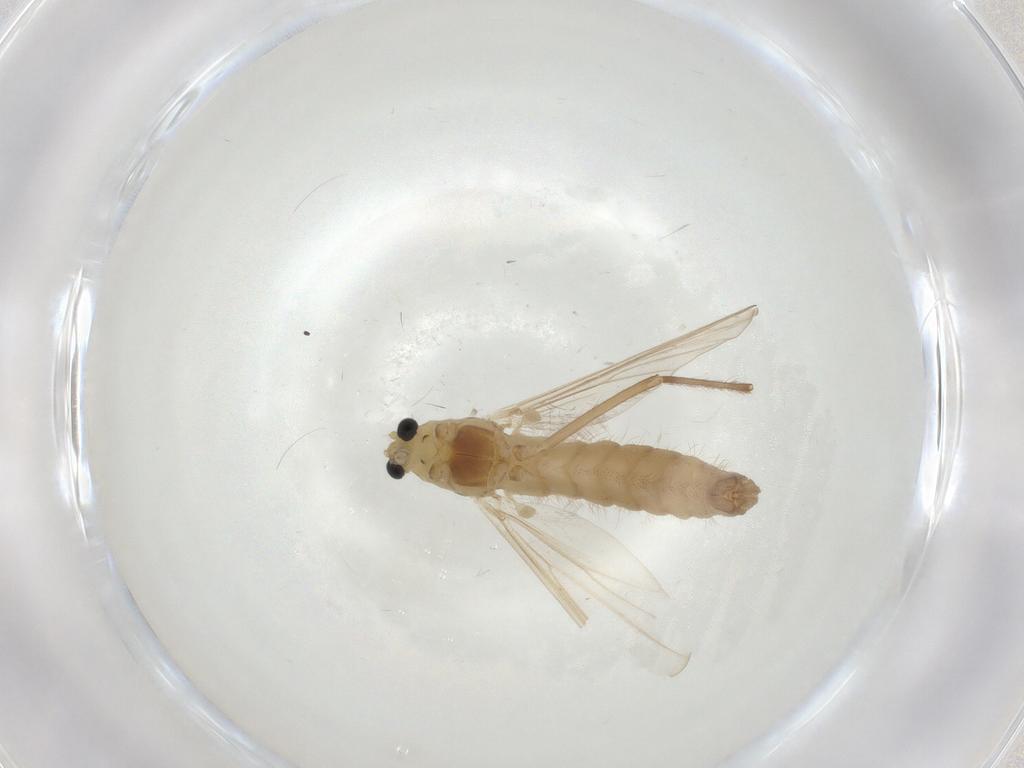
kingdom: Animalia
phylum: Arthropoda
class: Insecta
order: Diptera
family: Chironomidae
